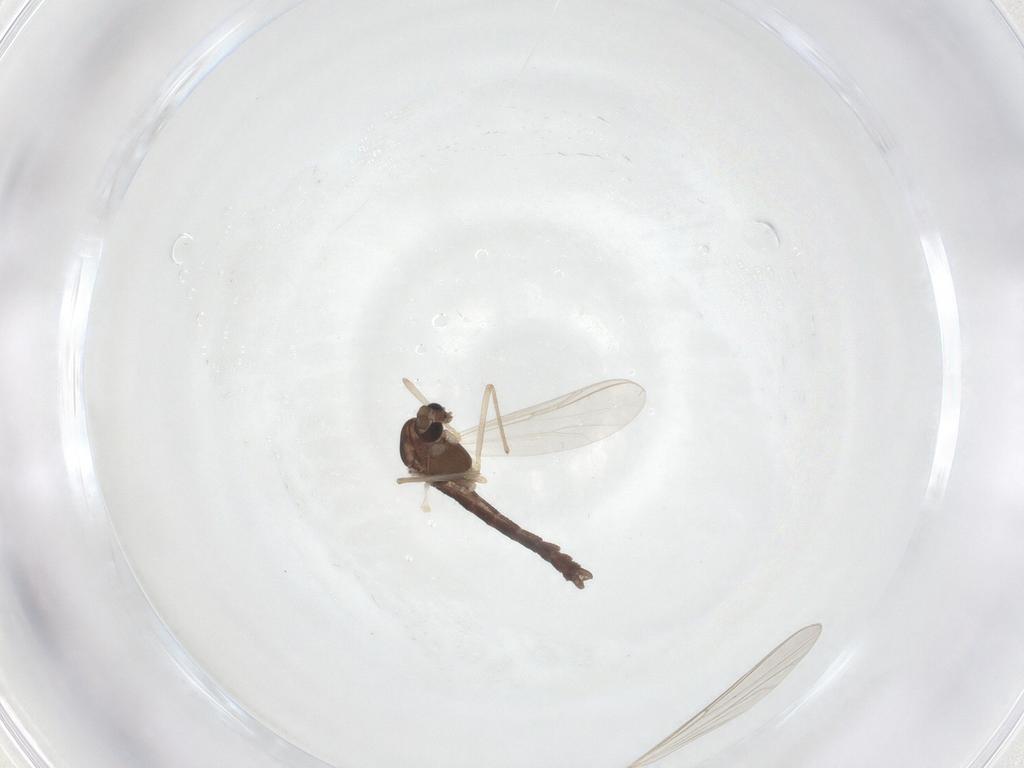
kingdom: Animalia
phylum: Arthropoda
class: Insecta
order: Diptera
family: Chironomidae
